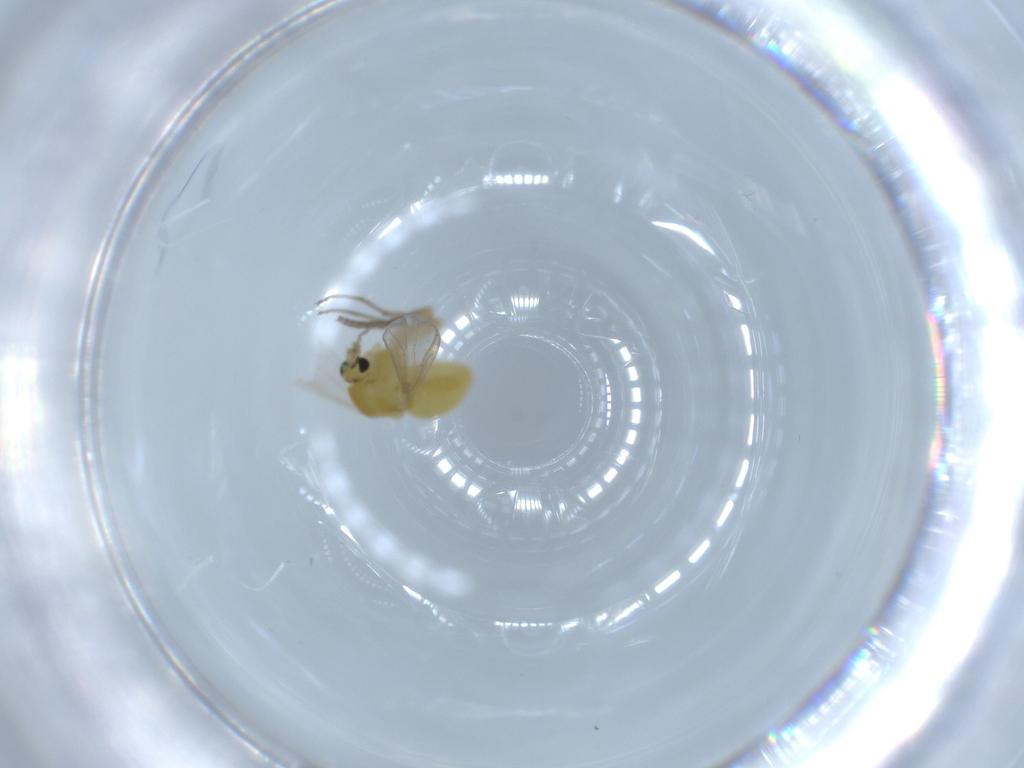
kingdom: Animalia
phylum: Arthropoda
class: Insecta
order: Diptera
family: Chironomidae
